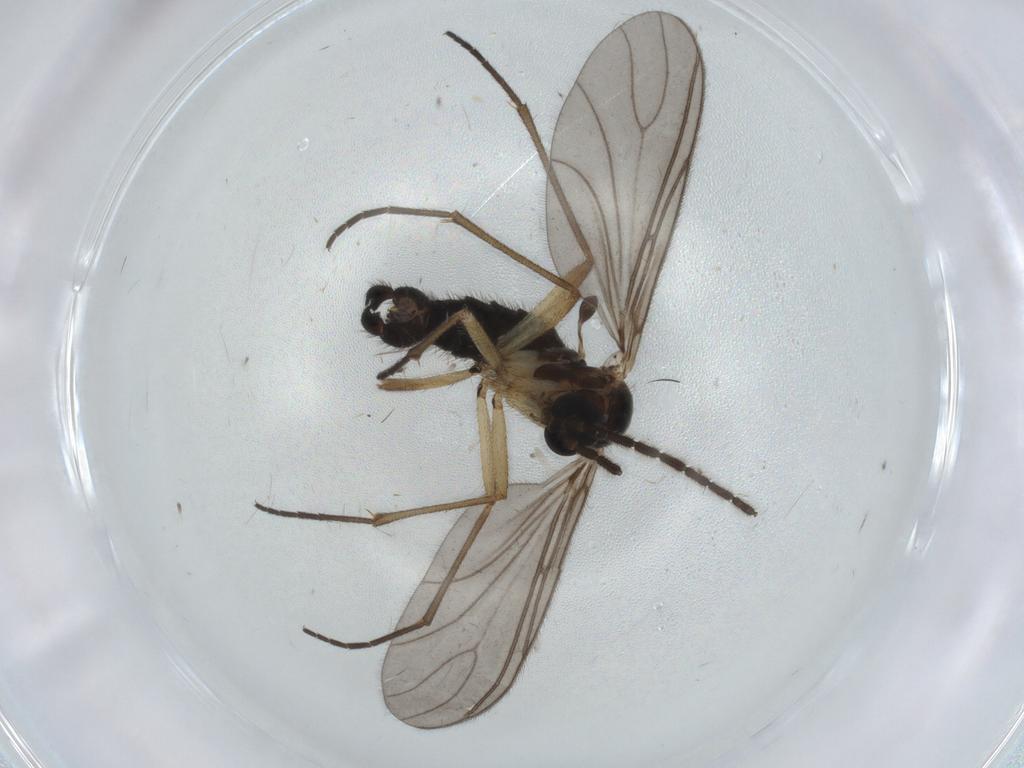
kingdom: Animalia
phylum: Arthropoda
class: Insecta
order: Diptera
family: Sciaridae
